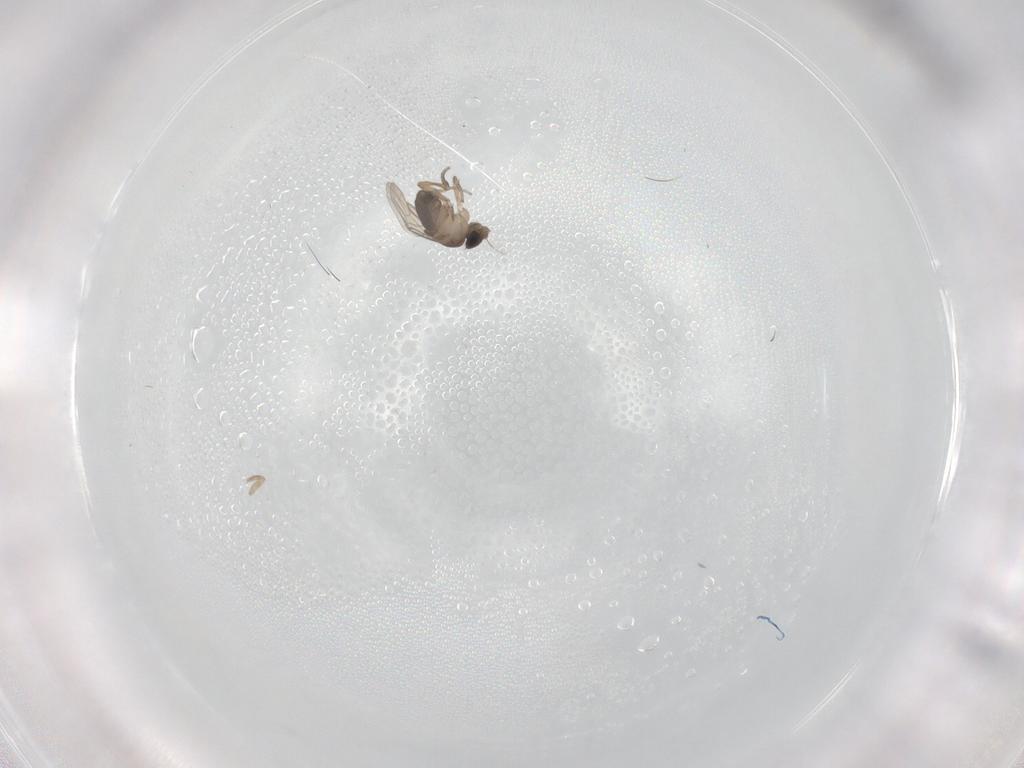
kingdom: Animalia
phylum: Arthropoda
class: Insecta
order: Diptera
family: Phoridae
